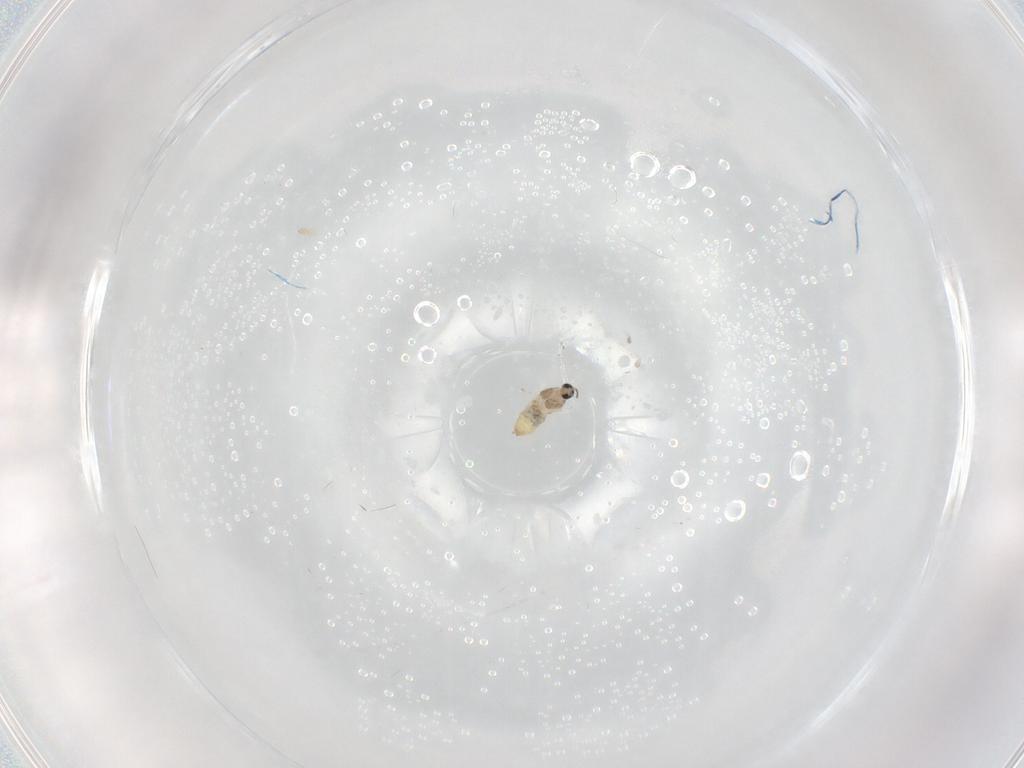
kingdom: Animalia
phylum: Arthropoda
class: Insecta
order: Diptera
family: Cecidomyiidae
